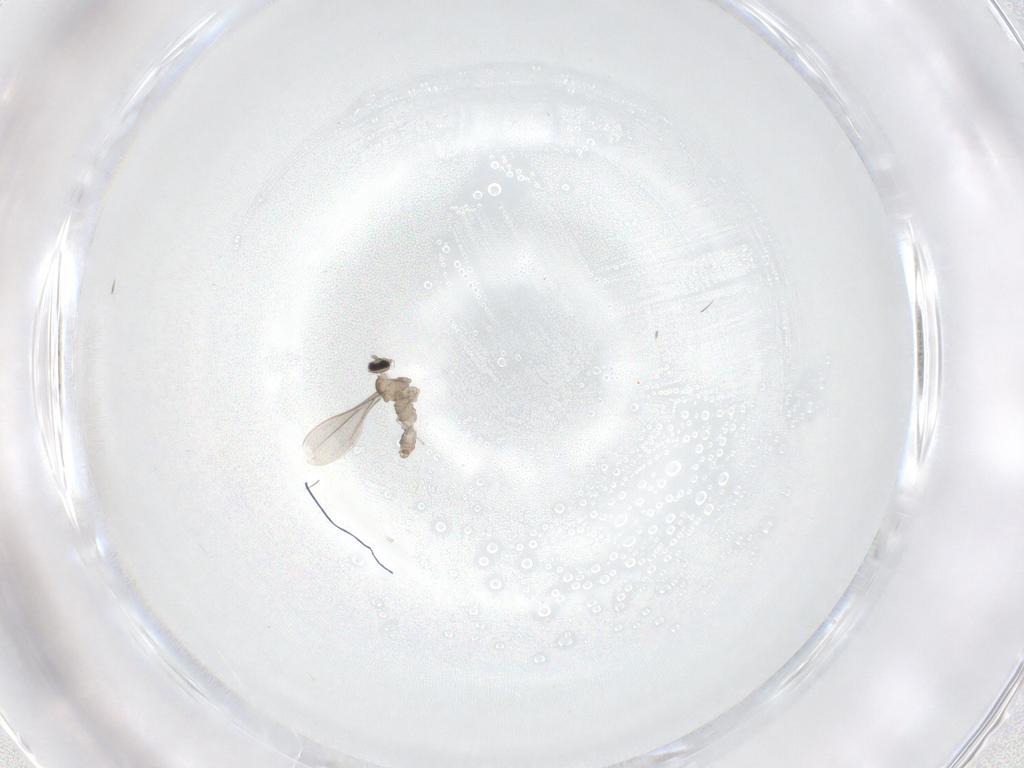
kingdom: Animalia
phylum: Arthropoda
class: Insecta
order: Diptera
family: Cecidomyiidae
